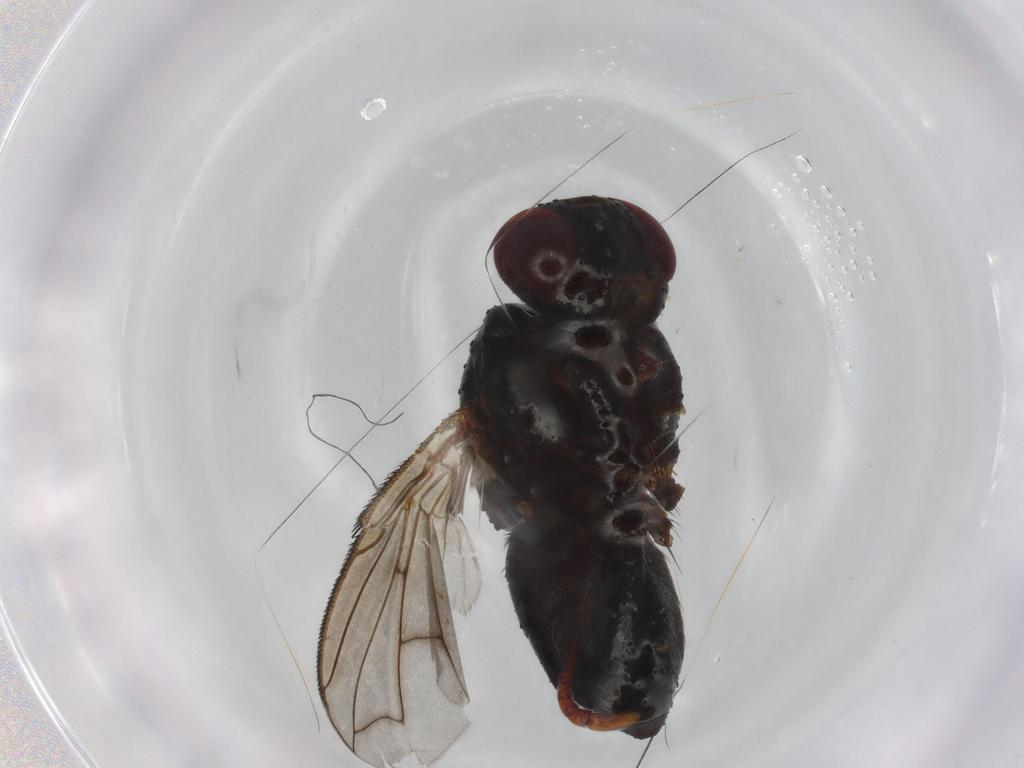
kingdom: Animalia
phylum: Arthropoda
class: Insecta
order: Diptera
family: Tachinidae
